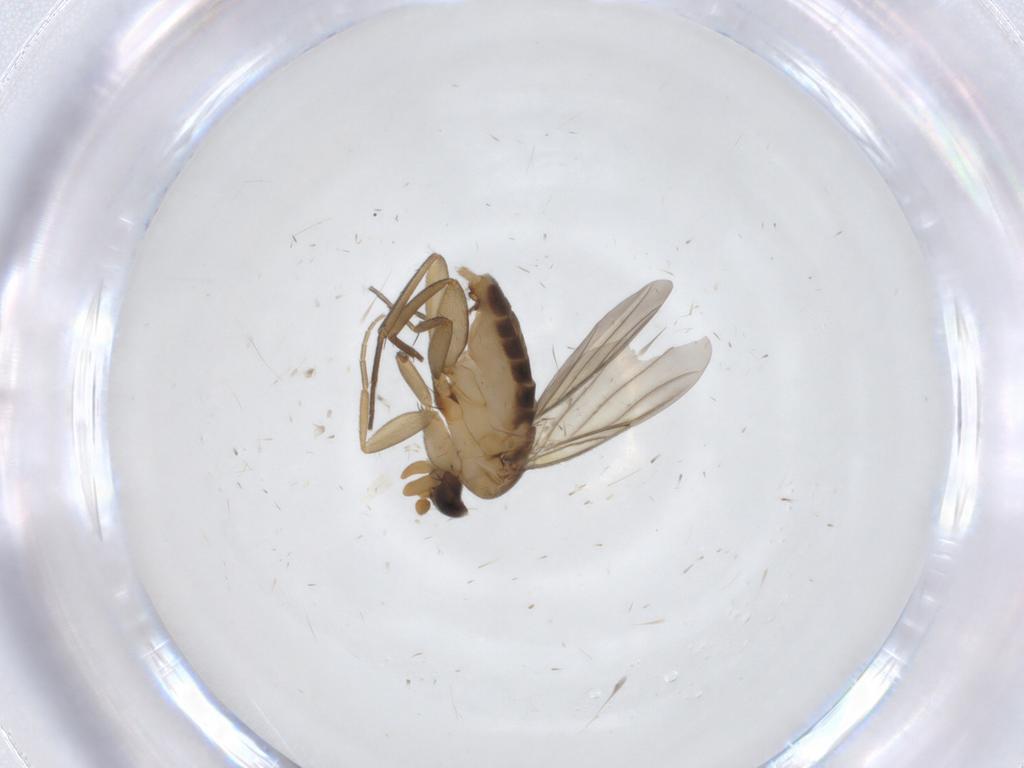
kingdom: Animalia
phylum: Arthropoda
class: Insecta
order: Diptera
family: Phoridae
